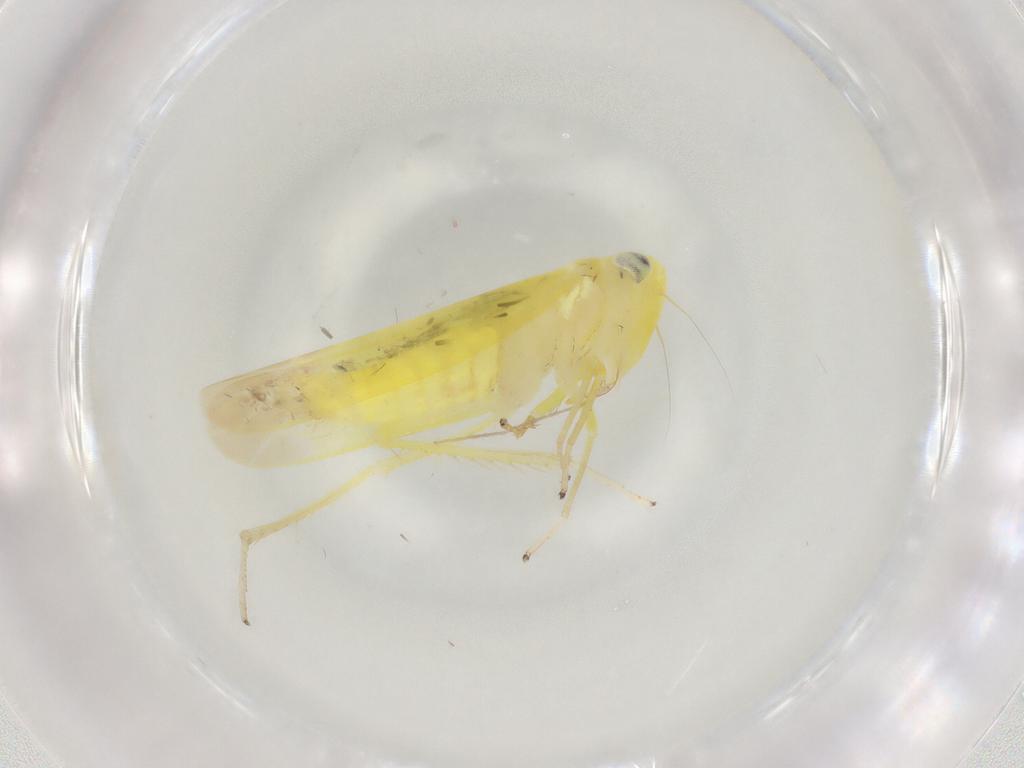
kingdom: Animalia
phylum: Arthropoda
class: Insecta
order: Hemiptera
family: Cicadellidae
